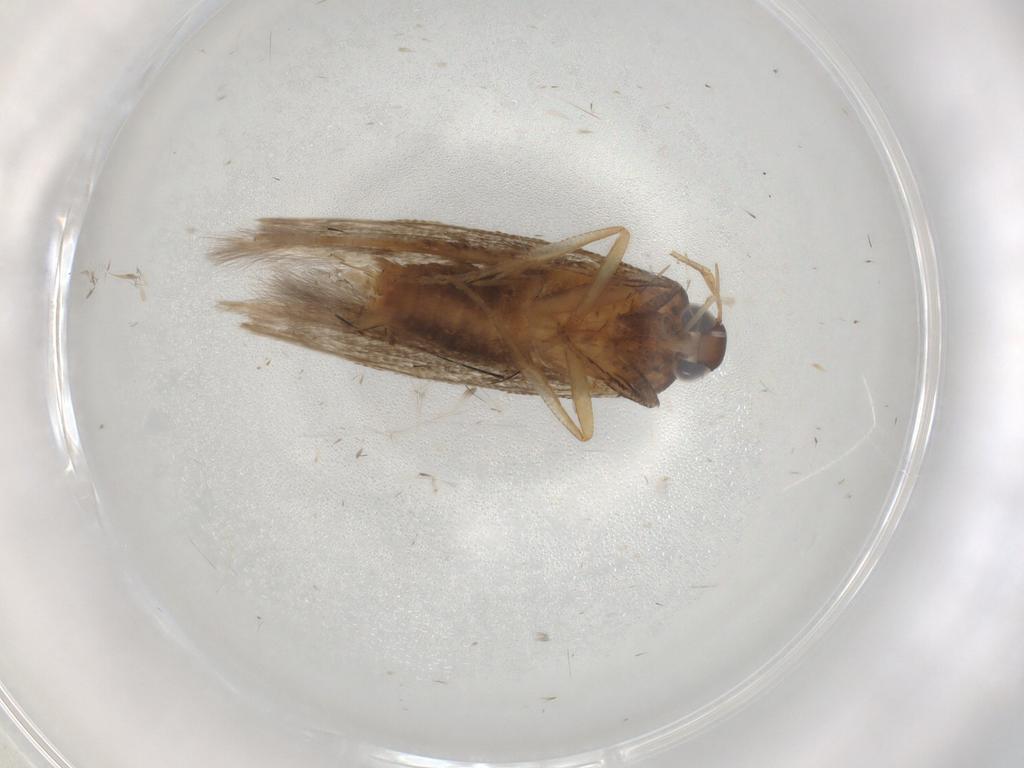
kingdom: Animalia
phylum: Arthropoda
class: Insecta
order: Lepidoptera
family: Cosmopterigidae
